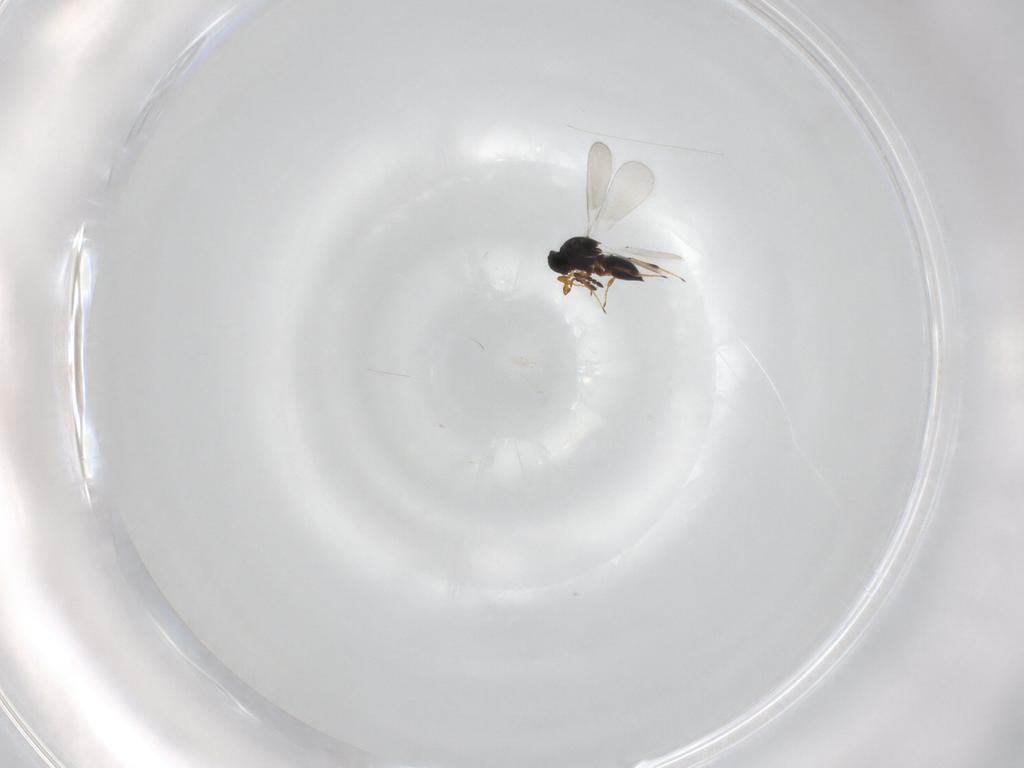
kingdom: Animalia
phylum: Arthropoda
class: Insecta
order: Hymenoptera
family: Platygastridae
